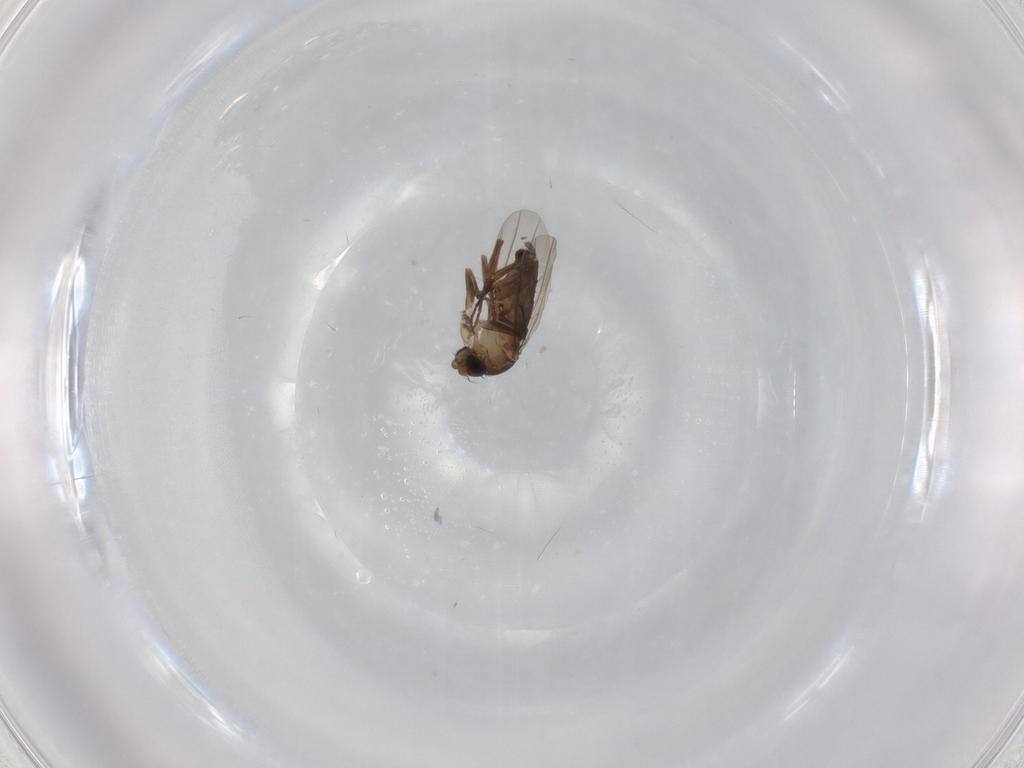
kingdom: Animalia
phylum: Arthropoda
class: Insecta
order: Diptera
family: Phoridae
